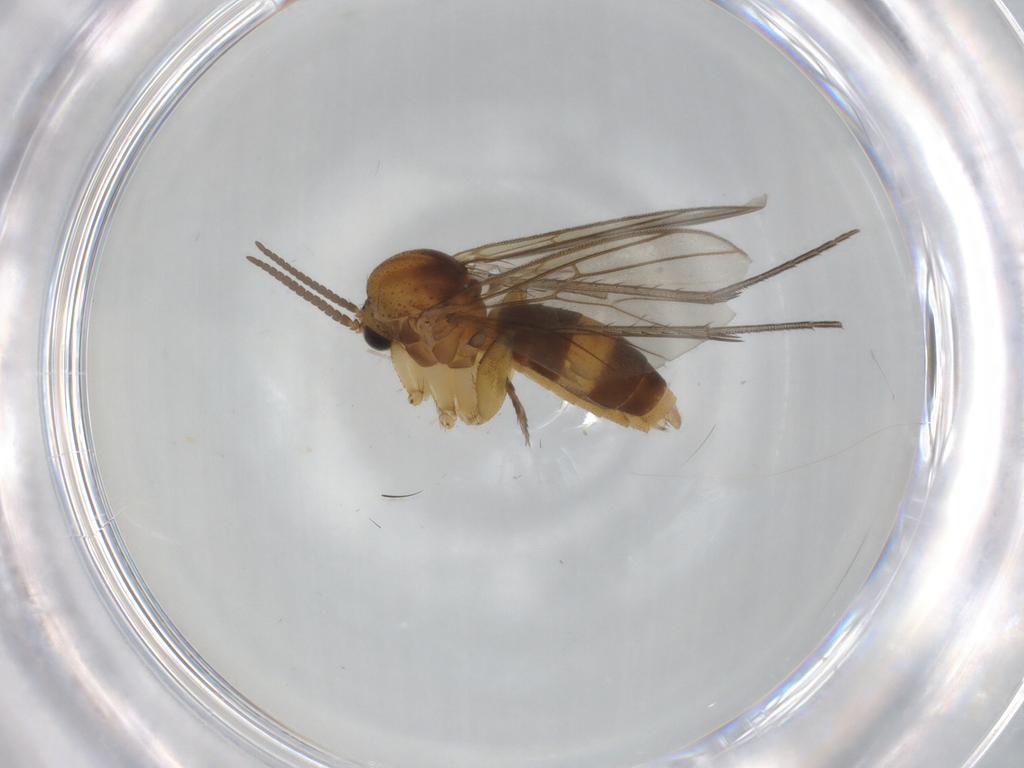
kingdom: Animalia
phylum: Arthropoda
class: Insecta
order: Diptera
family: Mycetophilidae
